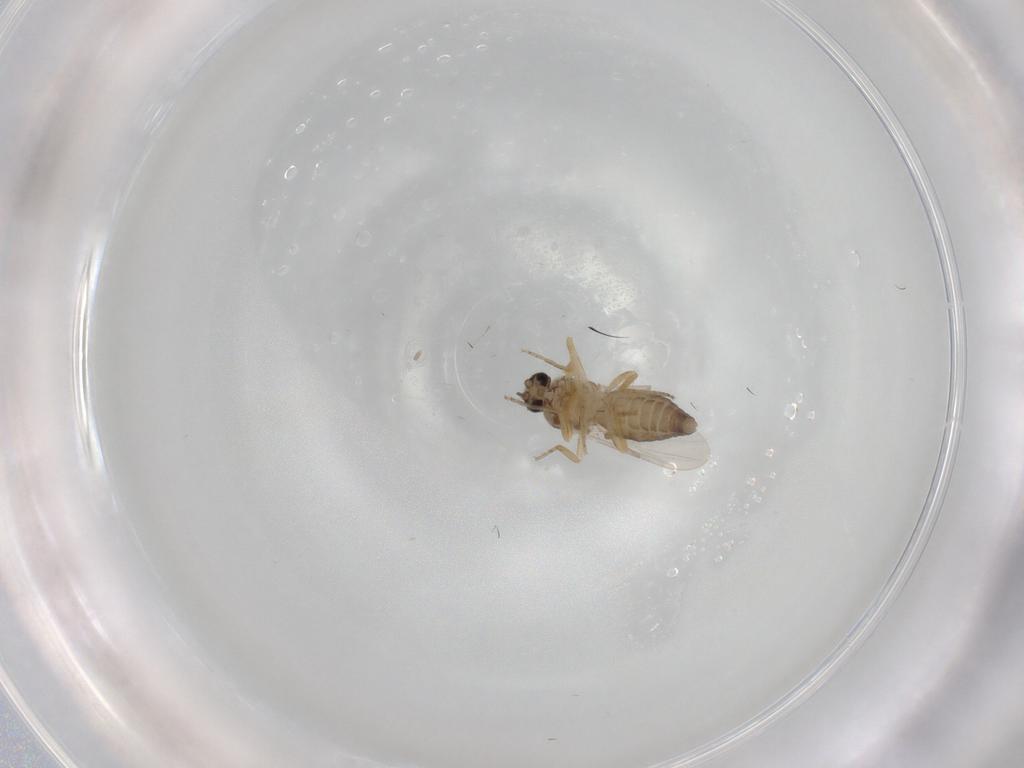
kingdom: Animalia
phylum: Arthropoda
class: Insecta
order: Diptera
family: Ceratopogonidae
